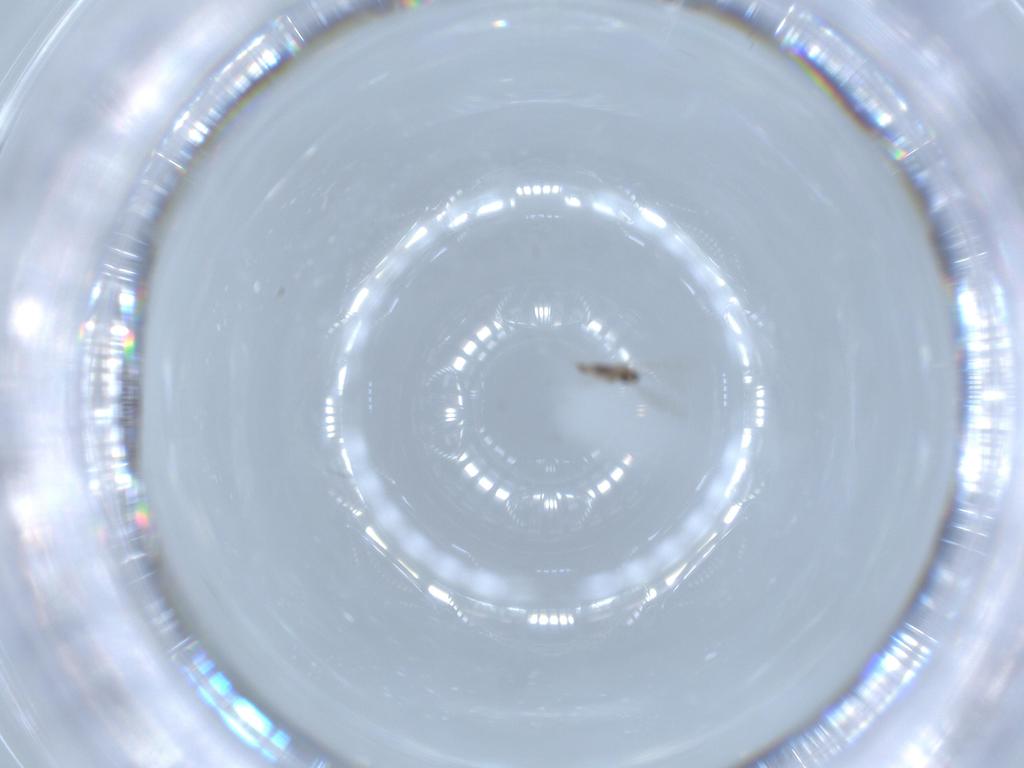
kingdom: Animalia
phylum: Arthropoda
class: Insecta
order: Diptera
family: Cecidomyiidae
